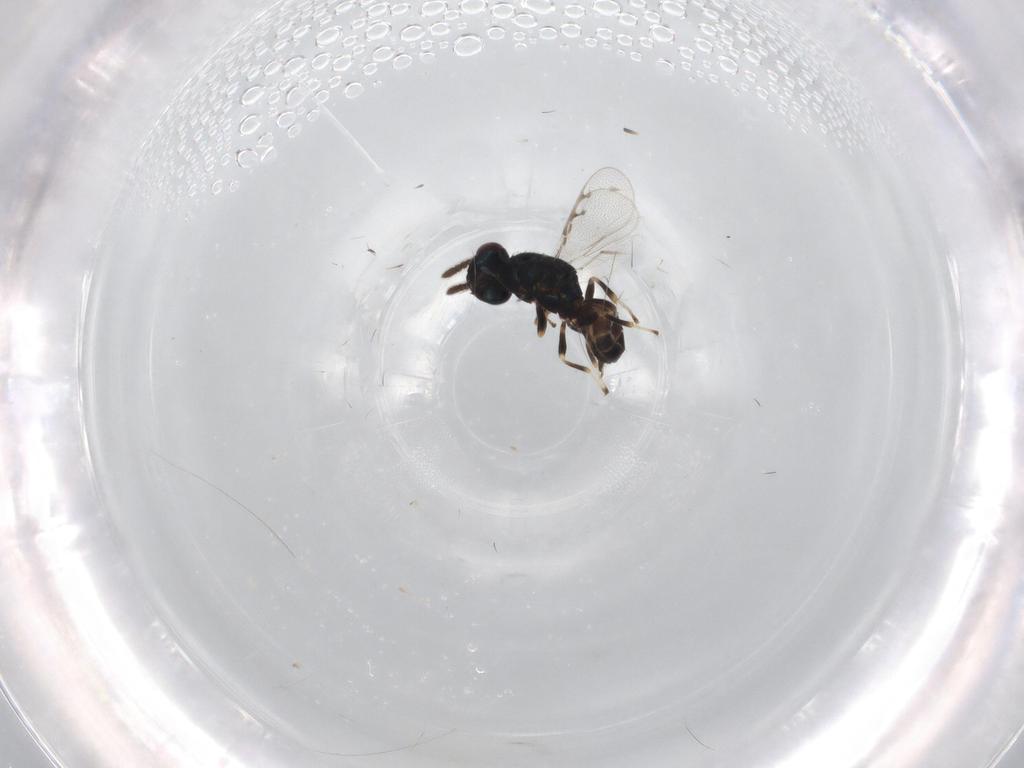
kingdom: Animalia
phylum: Arthropoda
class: Insecta
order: Hymenoptera
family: Pteromalidae
